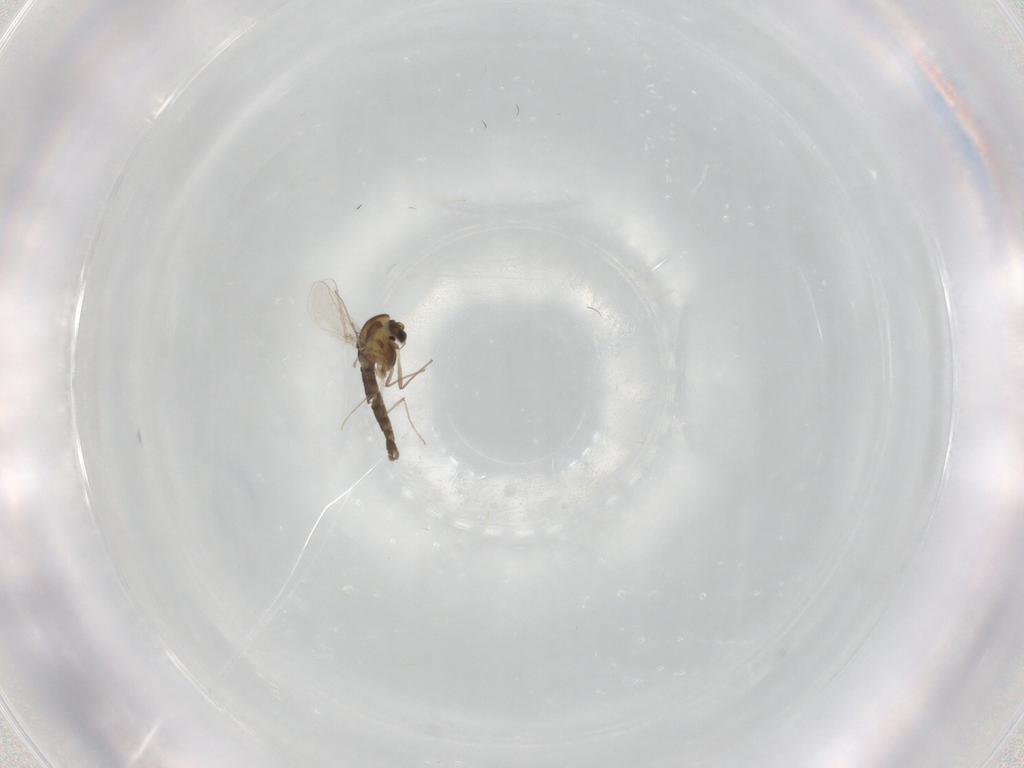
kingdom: Animalia
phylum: Arthropoda
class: Insecta
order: Diptera
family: Chironomidae
